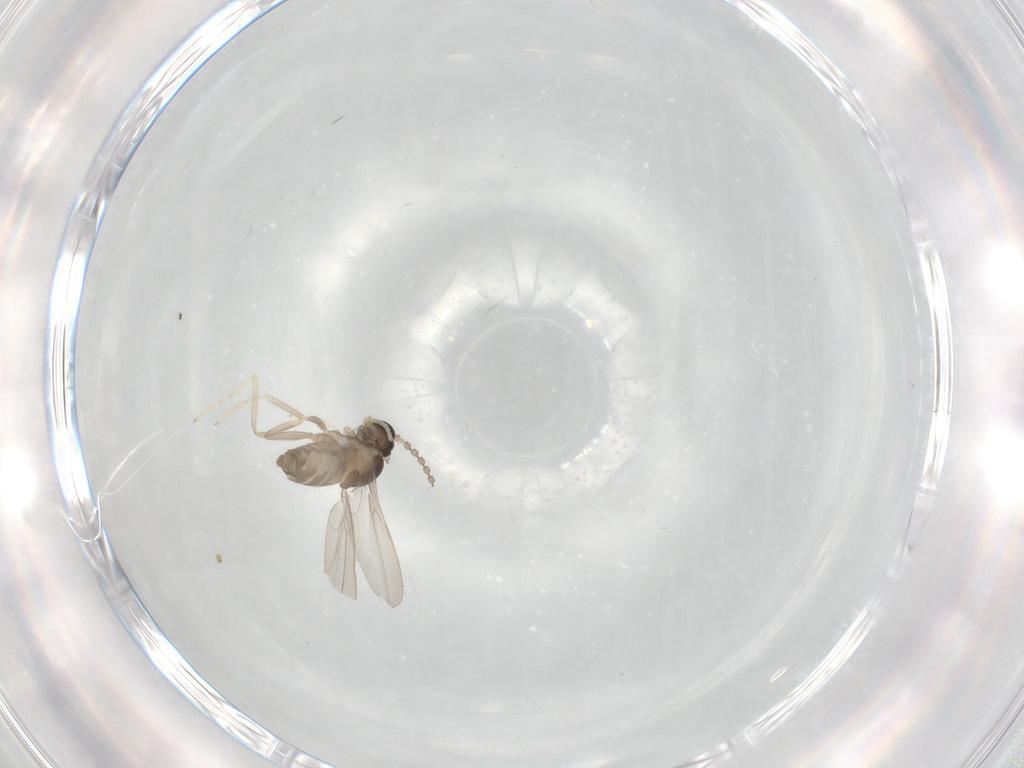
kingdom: Animalia
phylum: Arthropoda
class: Insecta
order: Diptera
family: Cecidomyiidae
